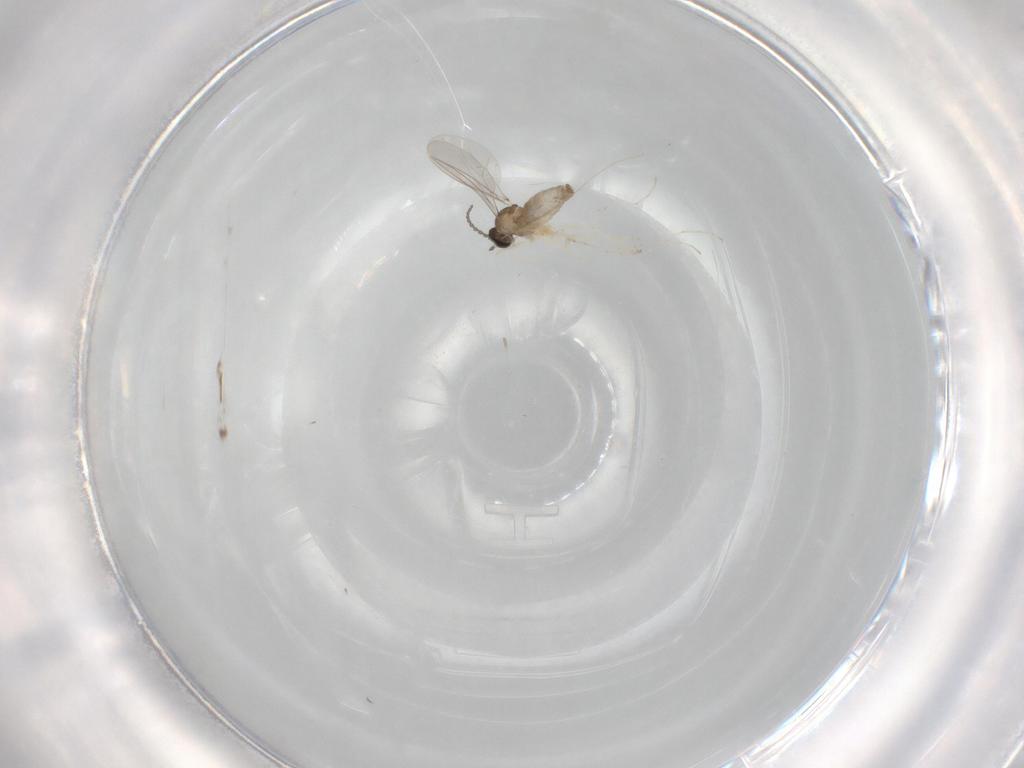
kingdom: Animalia
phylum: Arthropoda
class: Insecta
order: Diptera
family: Cecidomyiidae
